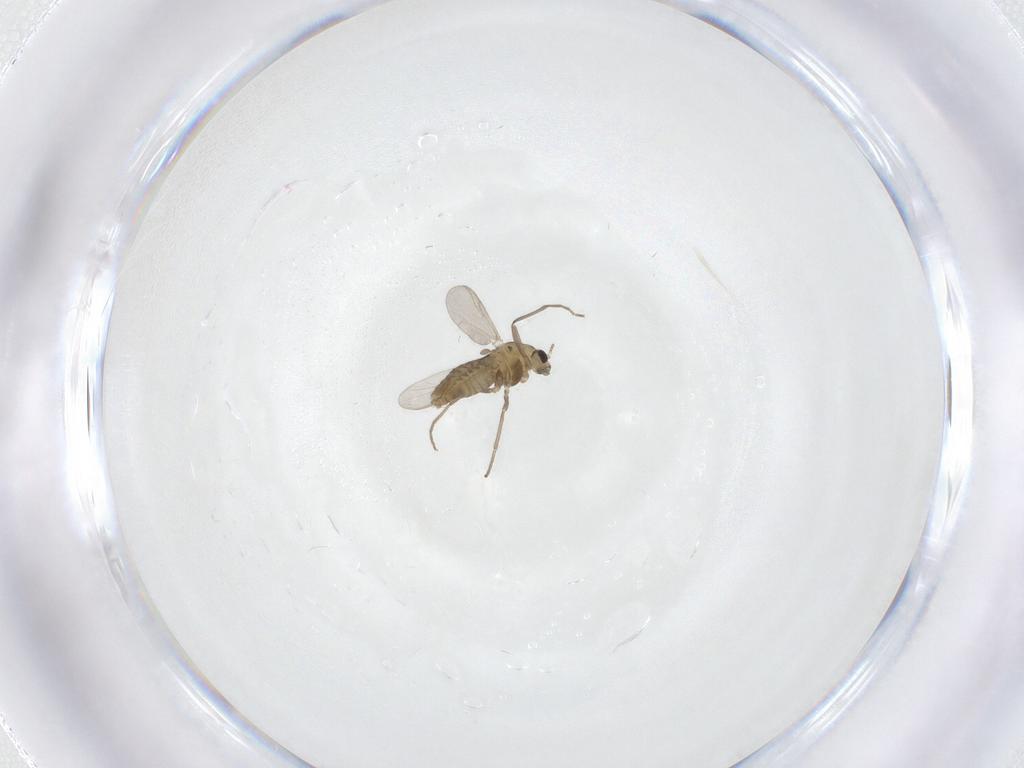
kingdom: Animalia
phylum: Arthropoda
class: Insecta
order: Diptera
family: Chironomidae
